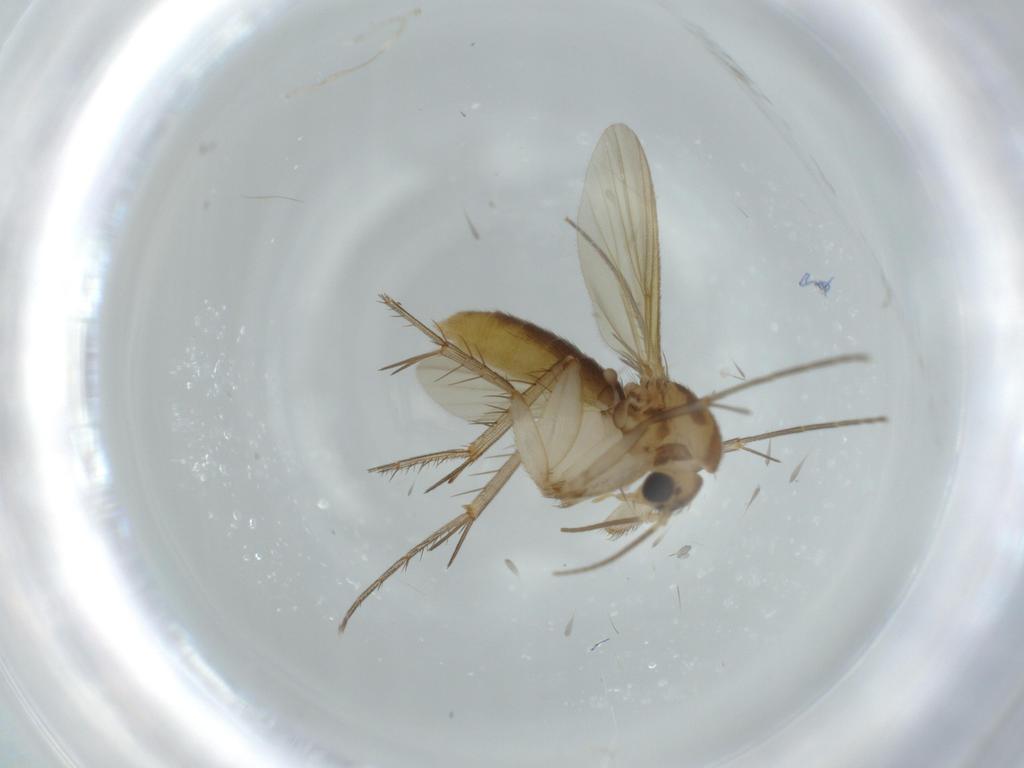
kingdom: Animalia
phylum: Arthropoda
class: Insecta
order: Diptera
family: Mycetophilidae
